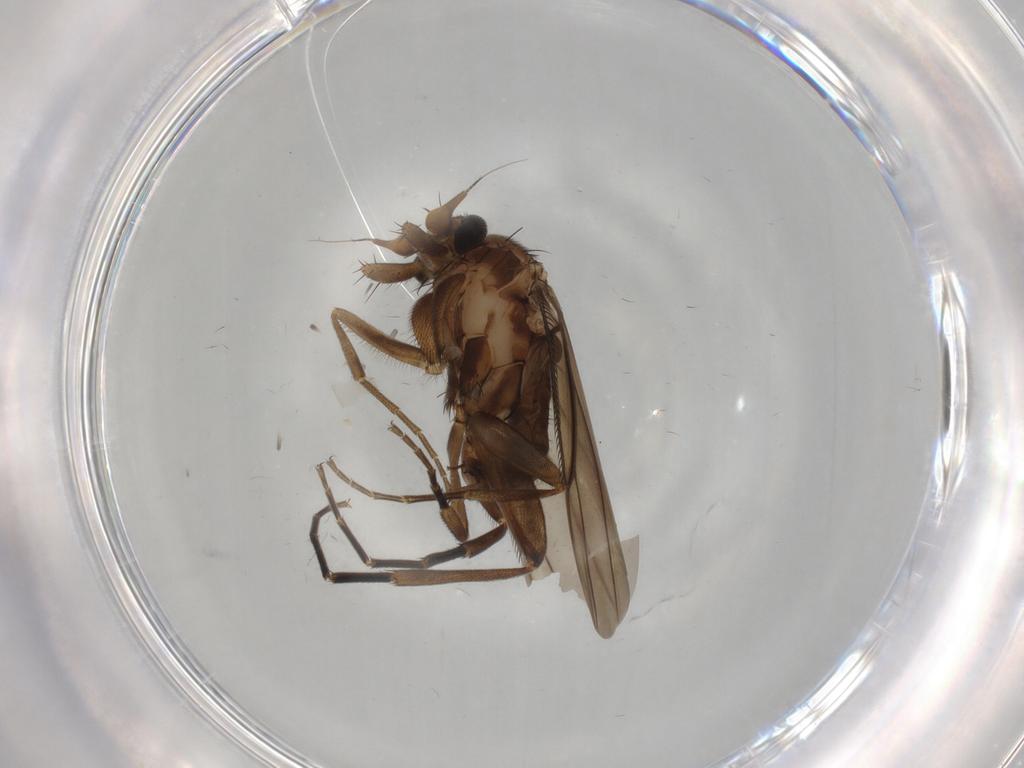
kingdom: Animalia
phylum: Arthropoda
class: Insecta
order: Diptera
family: Phoridae
